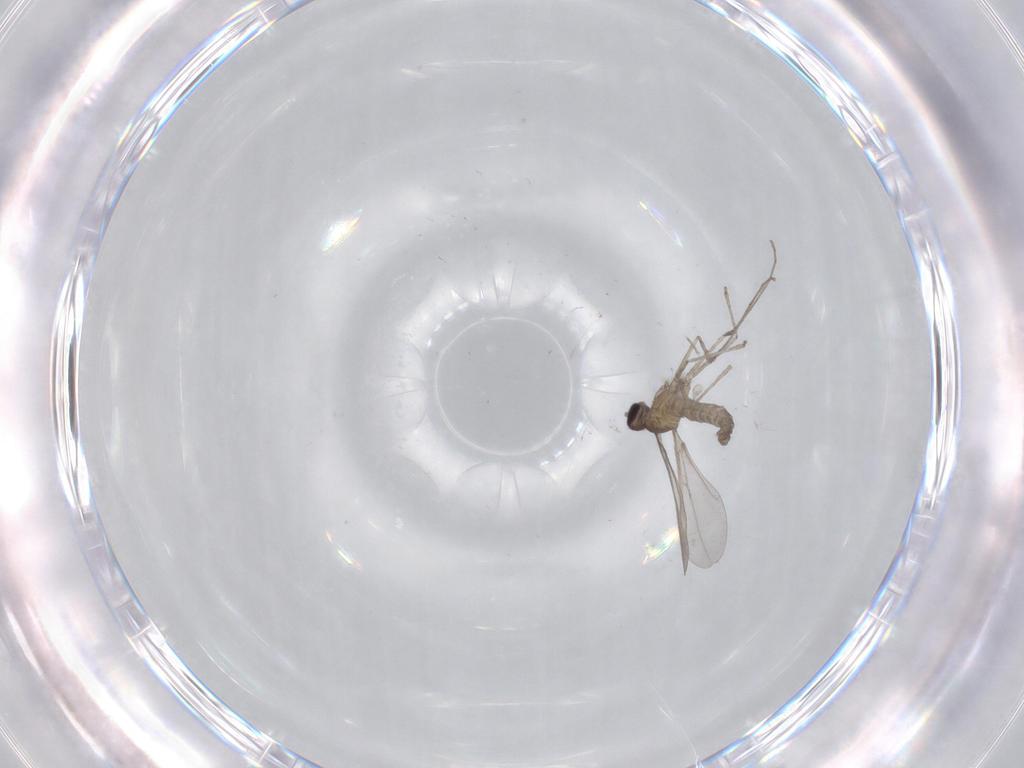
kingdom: Animalia
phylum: Arthropoda
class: Insecta
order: Diptera
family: Cecidomyiidae
